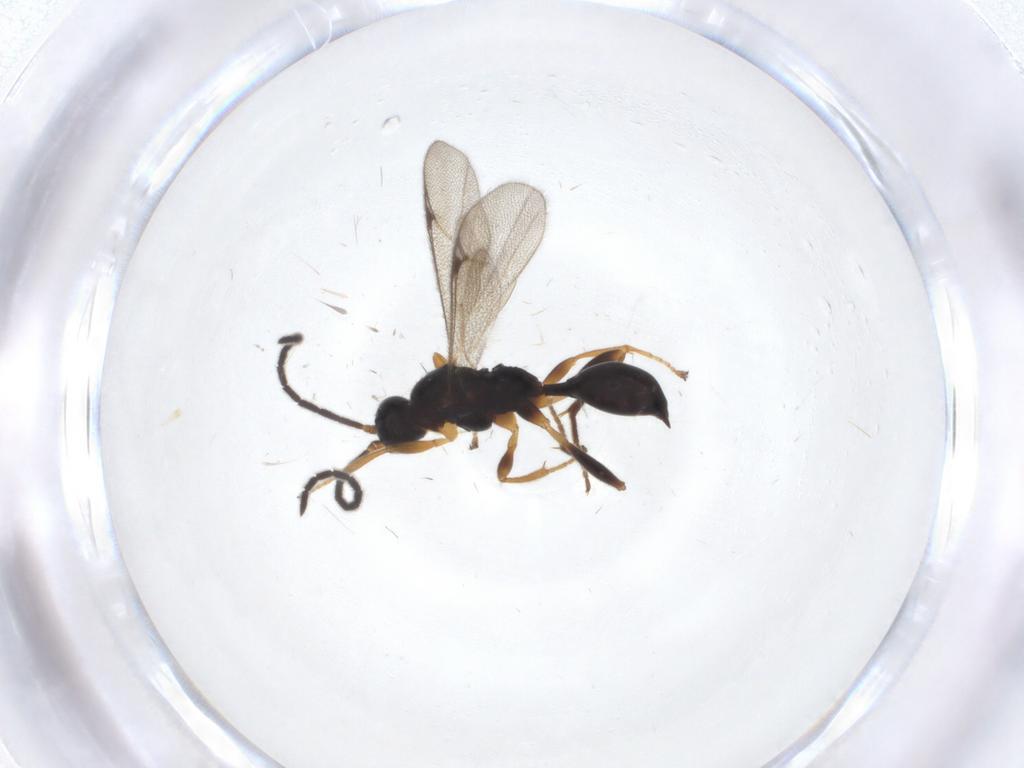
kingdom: Animalia
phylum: Arthropoda
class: Insecta
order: Hymenoptera
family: Proctotrupidae
